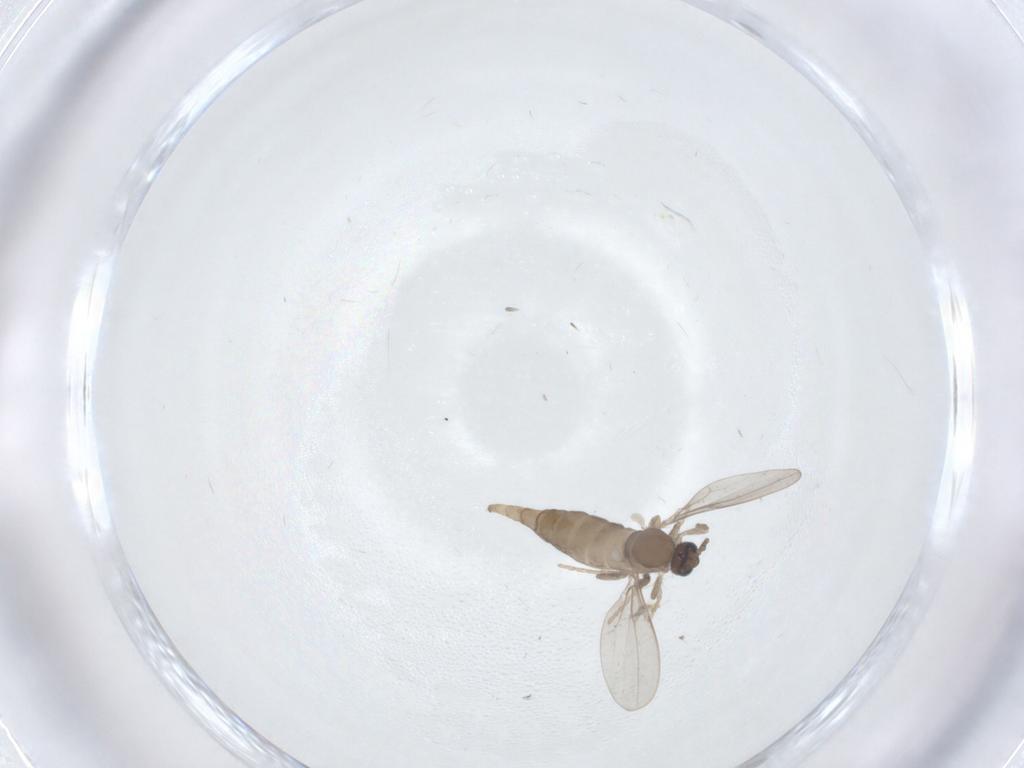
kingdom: Animalia
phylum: Arthropoda
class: Insecta
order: Diptera
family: Cecidomyiidae
